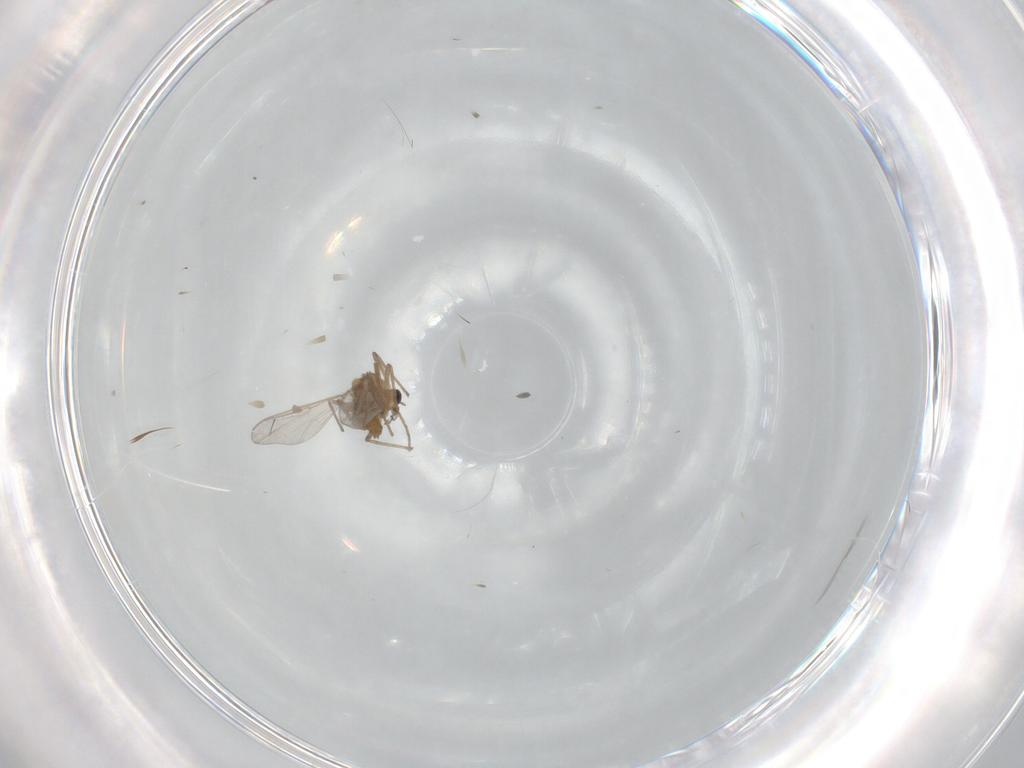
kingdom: Animalia
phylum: Arthropoda
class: Insecta
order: Diptera
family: Chironomidae
